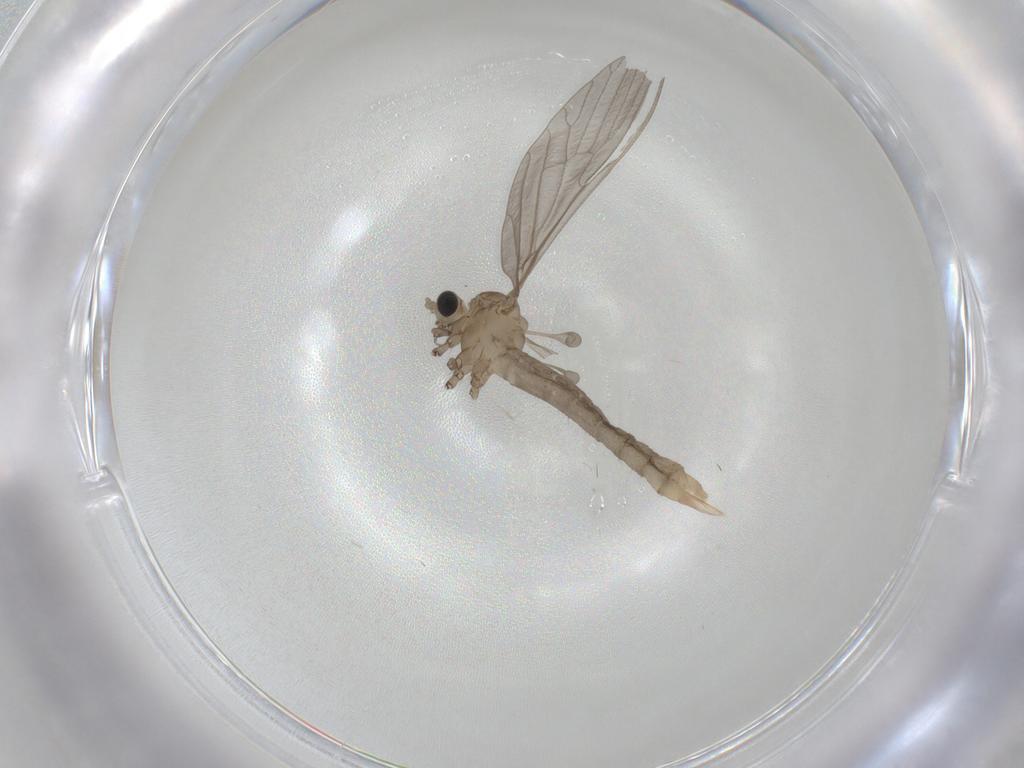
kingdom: Animalia
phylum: Arthropoda
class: Insecta
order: Diptera
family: Limoniidae
